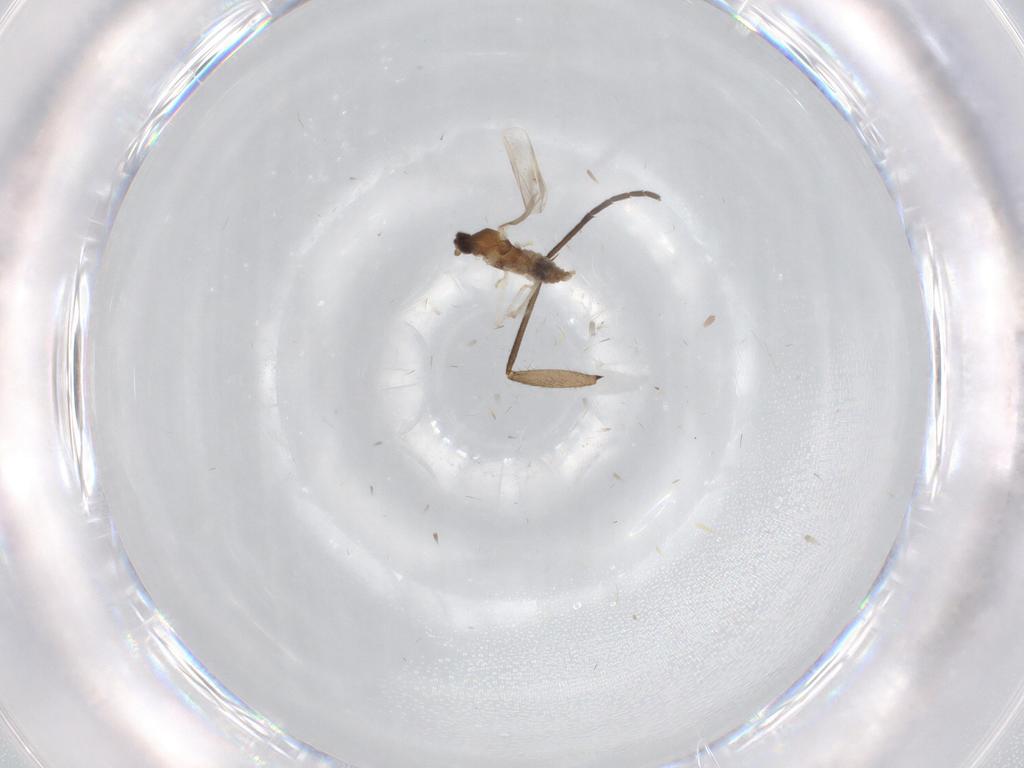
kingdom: Animalia
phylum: Arthropoda
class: Insecta
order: Diptera
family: Sciaridae
